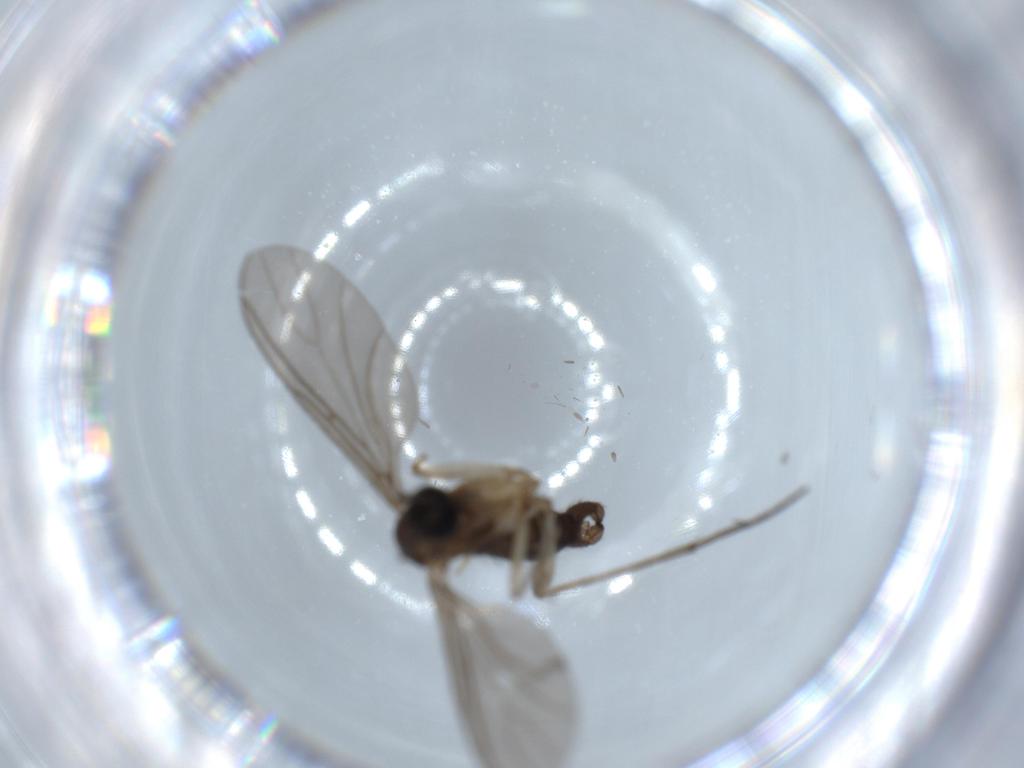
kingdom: Animalia
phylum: Arthropoda
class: Insecta
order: Diptera
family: Sciaridae
